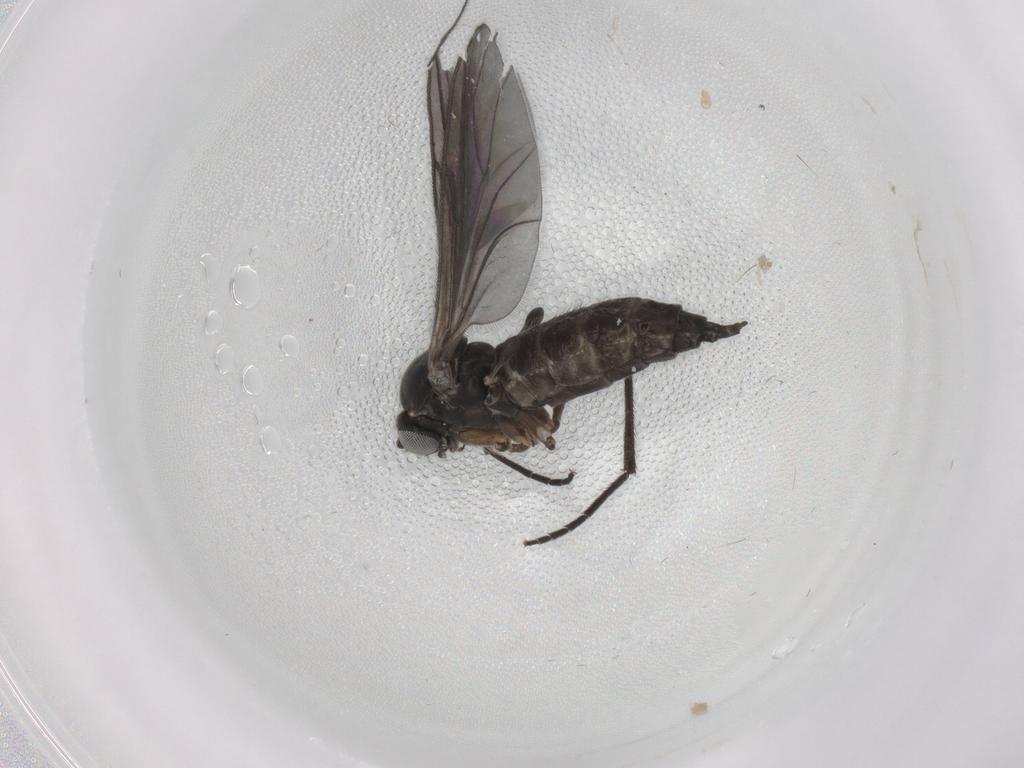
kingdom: Animalia
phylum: Arthropoda
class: Insecta
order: Diptera
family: Sciaridae
